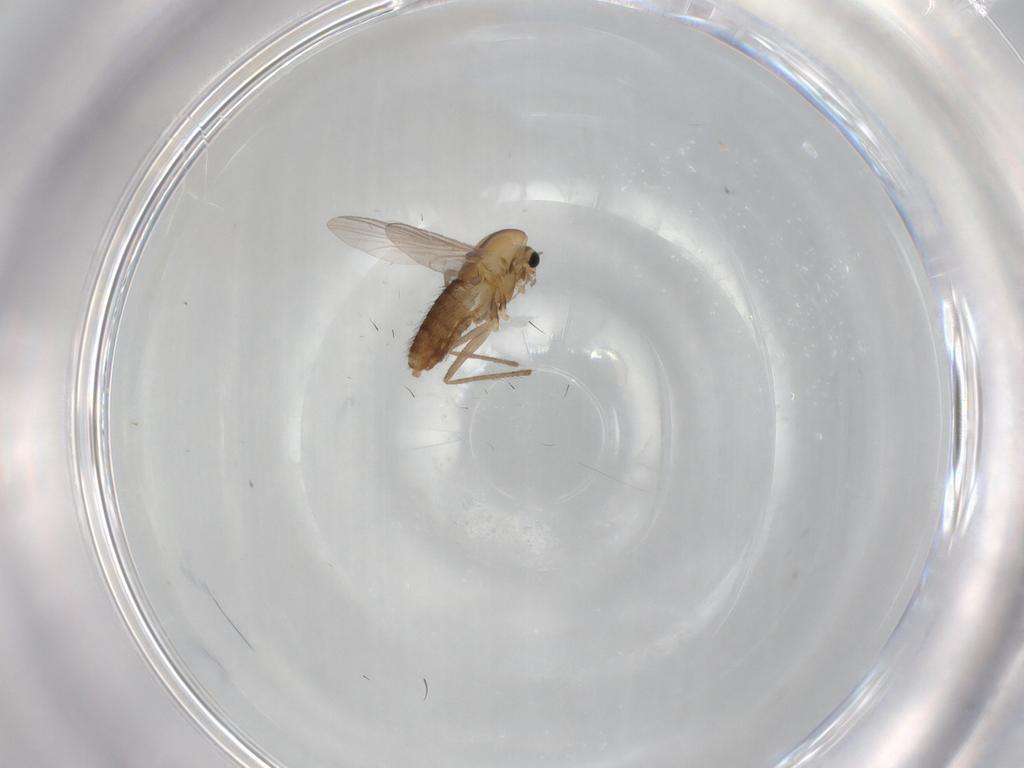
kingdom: Animalia
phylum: Arthropoda
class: Insecta
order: Diptera
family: Chironomidae
